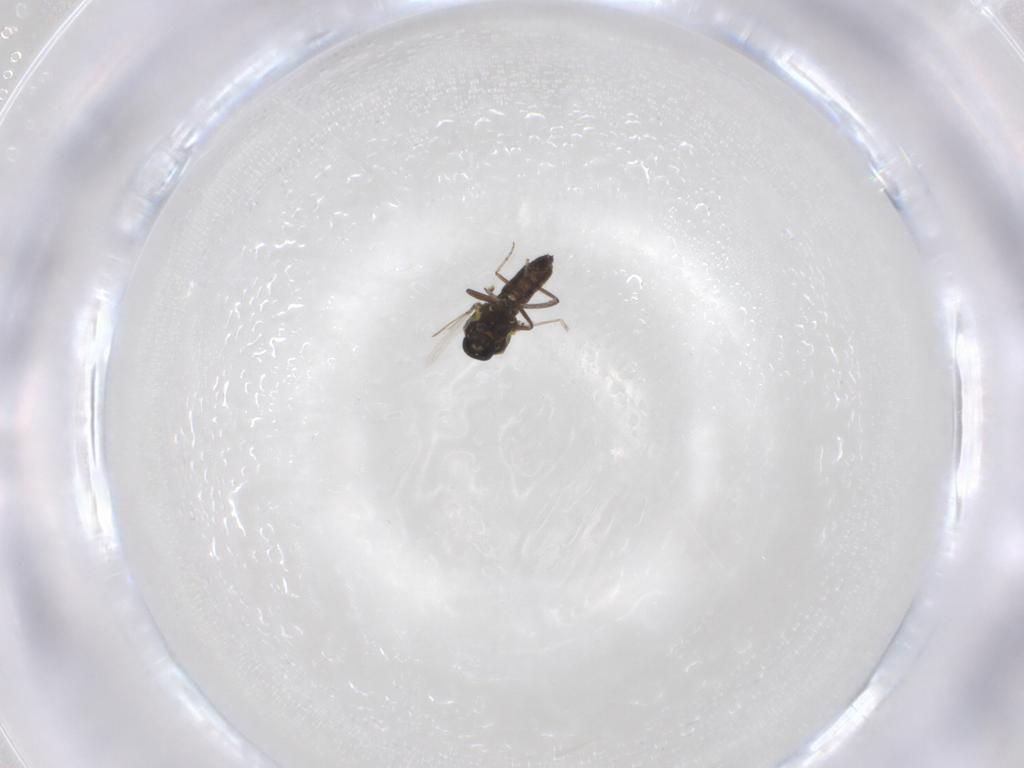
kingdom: Animalia
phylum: Arthropoda
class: Insecta
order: Diptera
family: Ceratopogonidae
